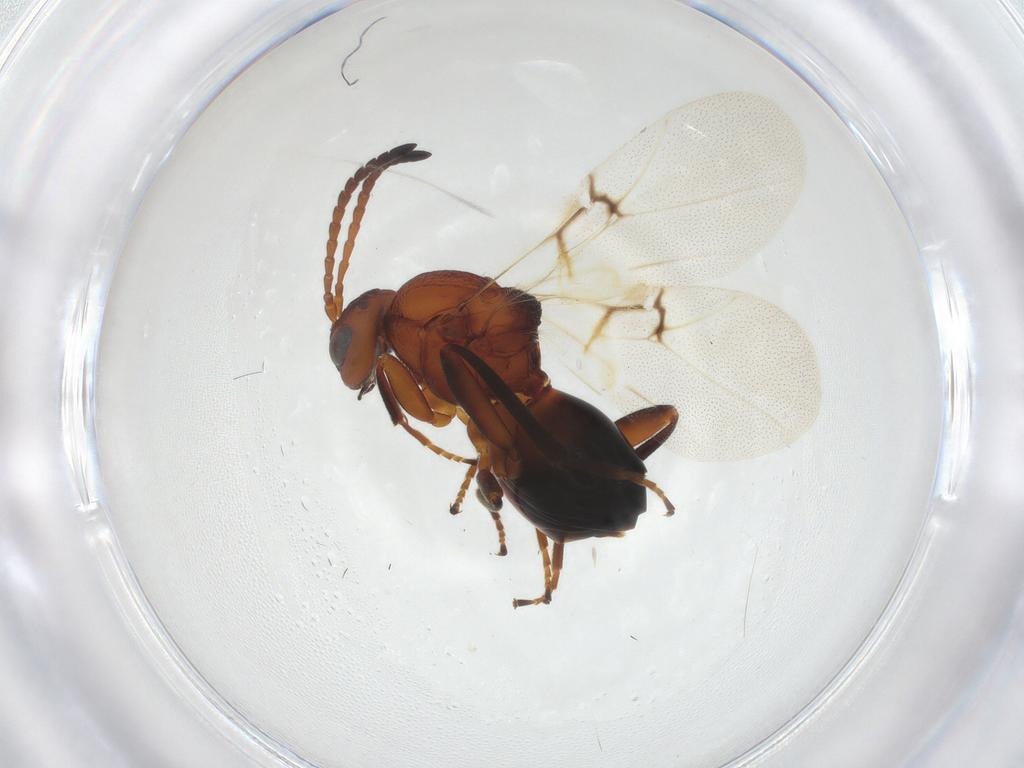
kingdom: Animalia
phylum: Arthropoda
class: Insecta
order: Hymenoptera
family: Cynipidae
